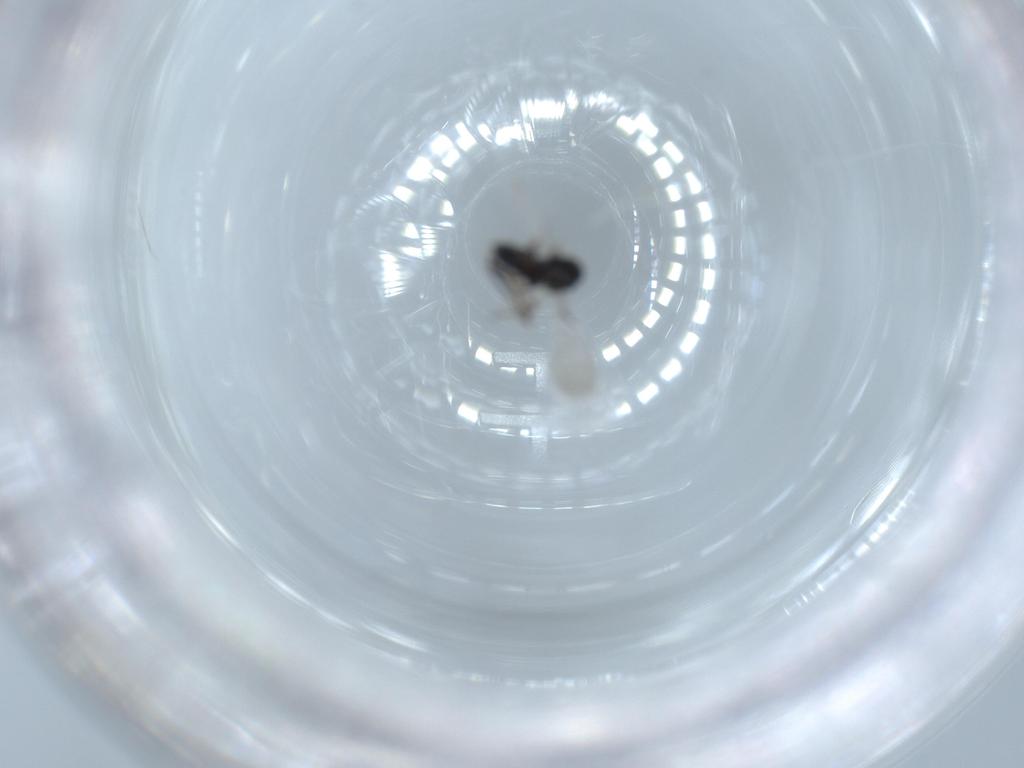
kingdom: Animalia
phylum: Arthropoda
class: Insecta
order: Diptera
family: Ceratopogonidae
